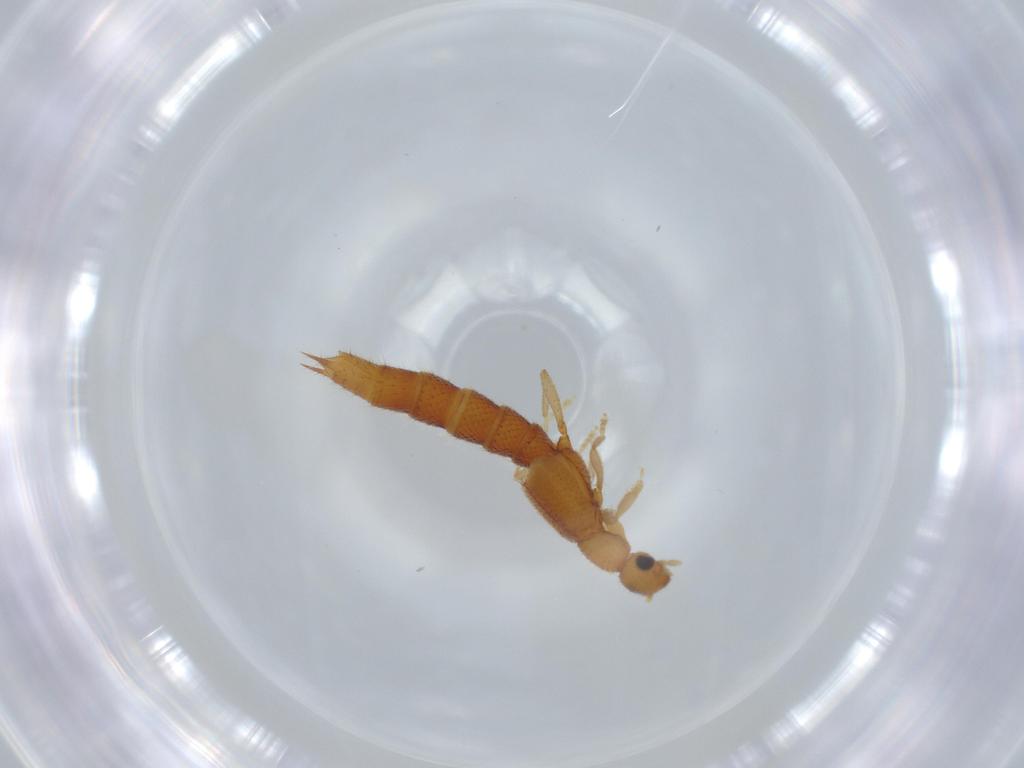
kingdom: Animalia
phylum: Arthropoda
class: Insecta
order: Coleoptera
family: Staphylinidae
